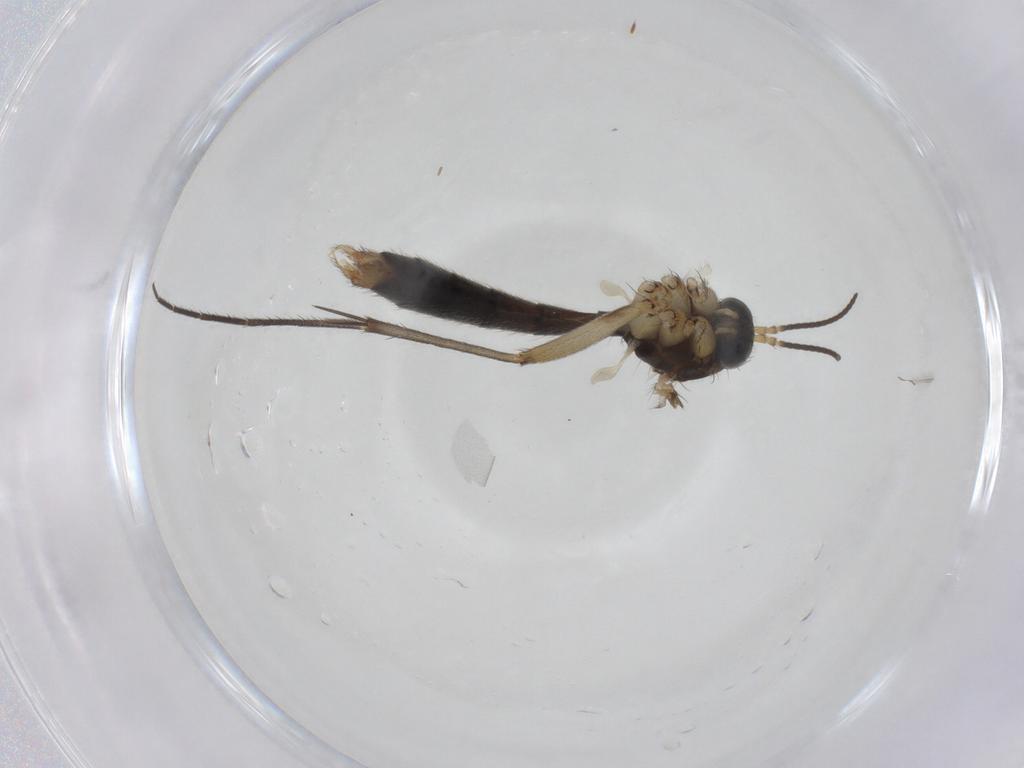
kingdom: Animalia
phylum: Arthropoda
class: Insecta
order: Diptera
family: Mycetophilidae
